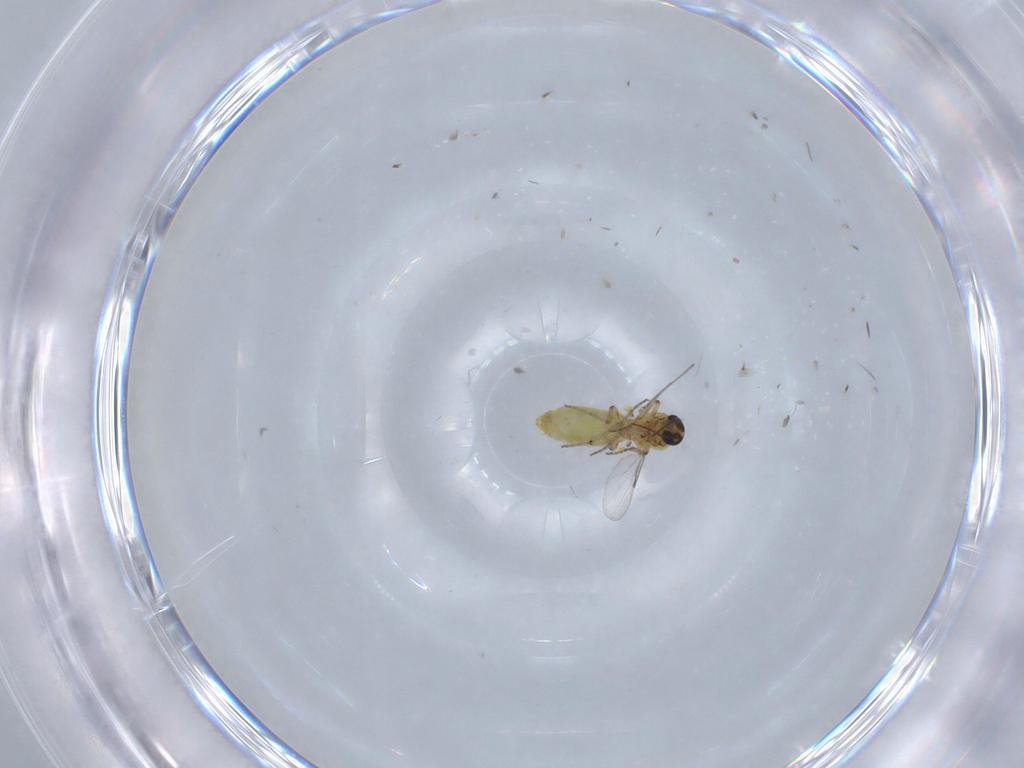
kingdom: Animalia
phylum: Arthropoda
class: Insecta
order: Diptera
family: Ceratopogonidae
